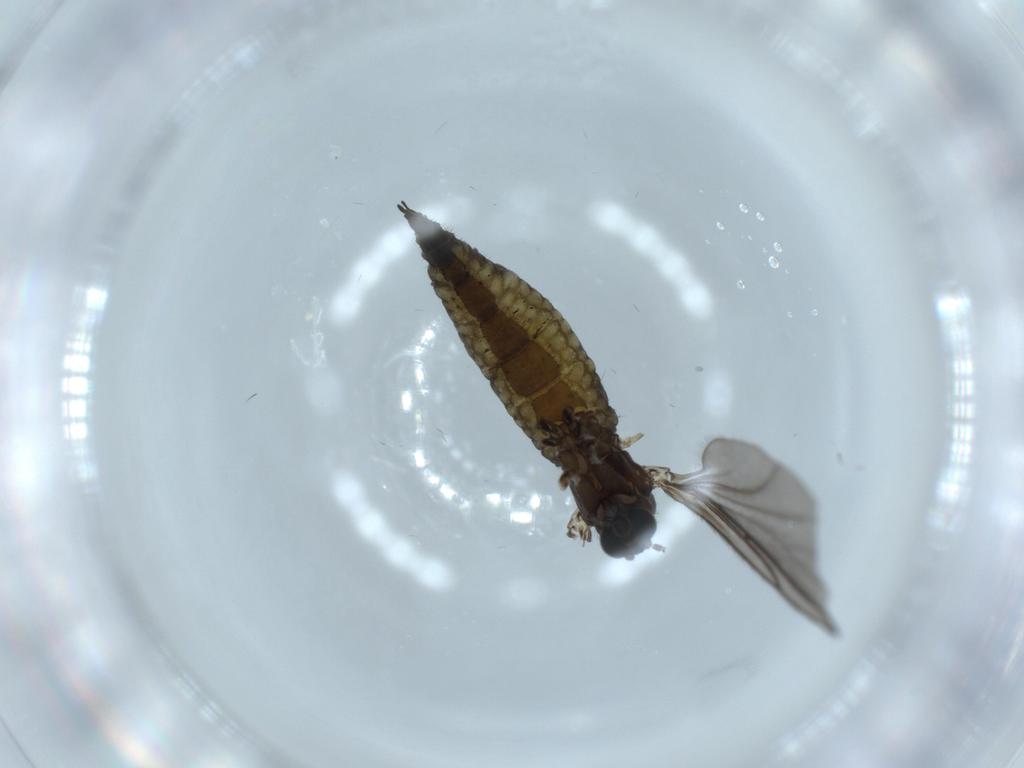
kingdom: Animalia
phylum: Arthropoda
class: Insecta
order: Diptera
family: Sciaridae
